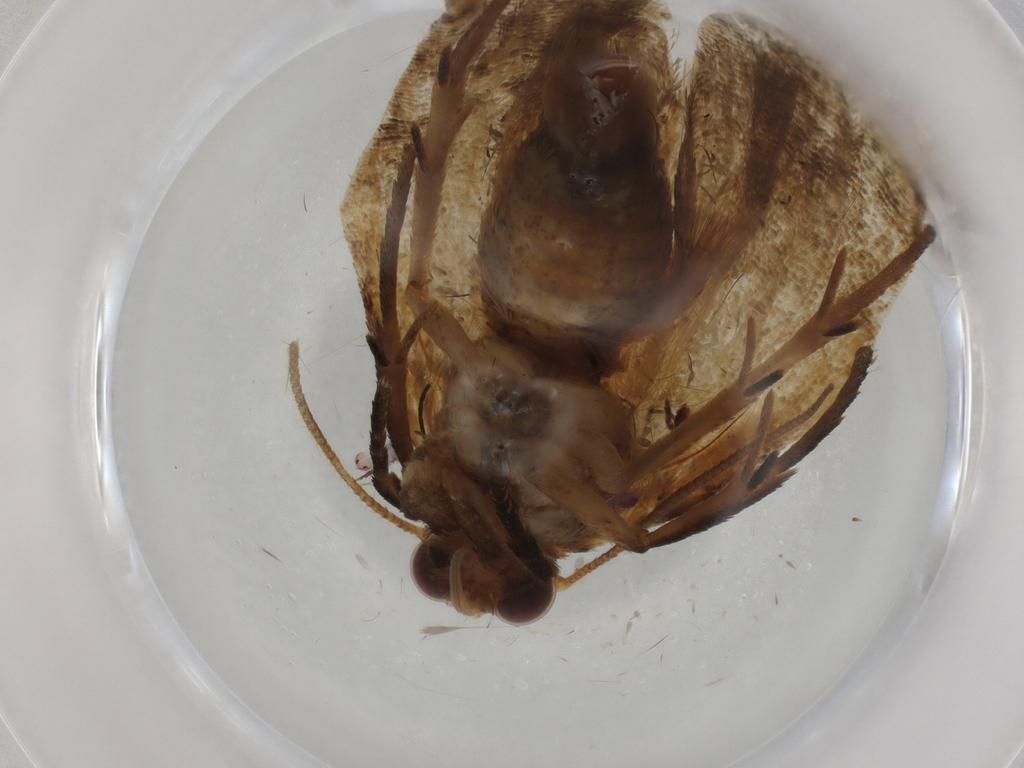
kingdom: Animalia
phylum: Arthropoda
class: Insecta
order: Lepidoptera
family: Tortricidae
